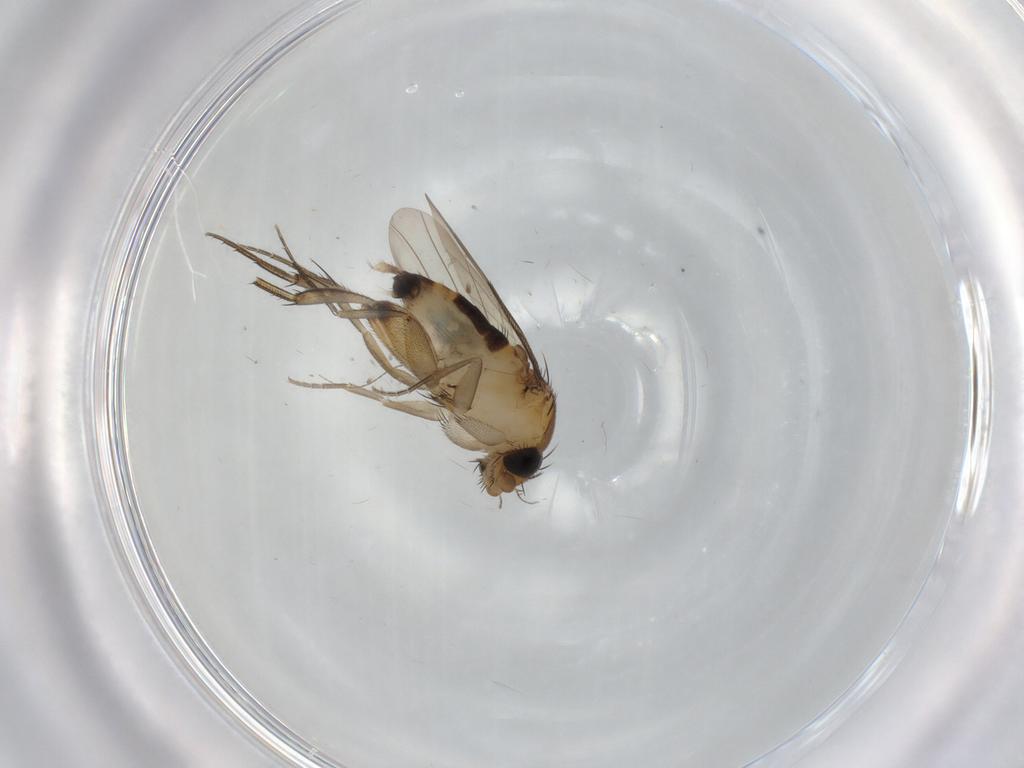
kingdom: Animalia
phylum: Arthropoda
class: Insecta
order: Diptera
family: Phoridae
